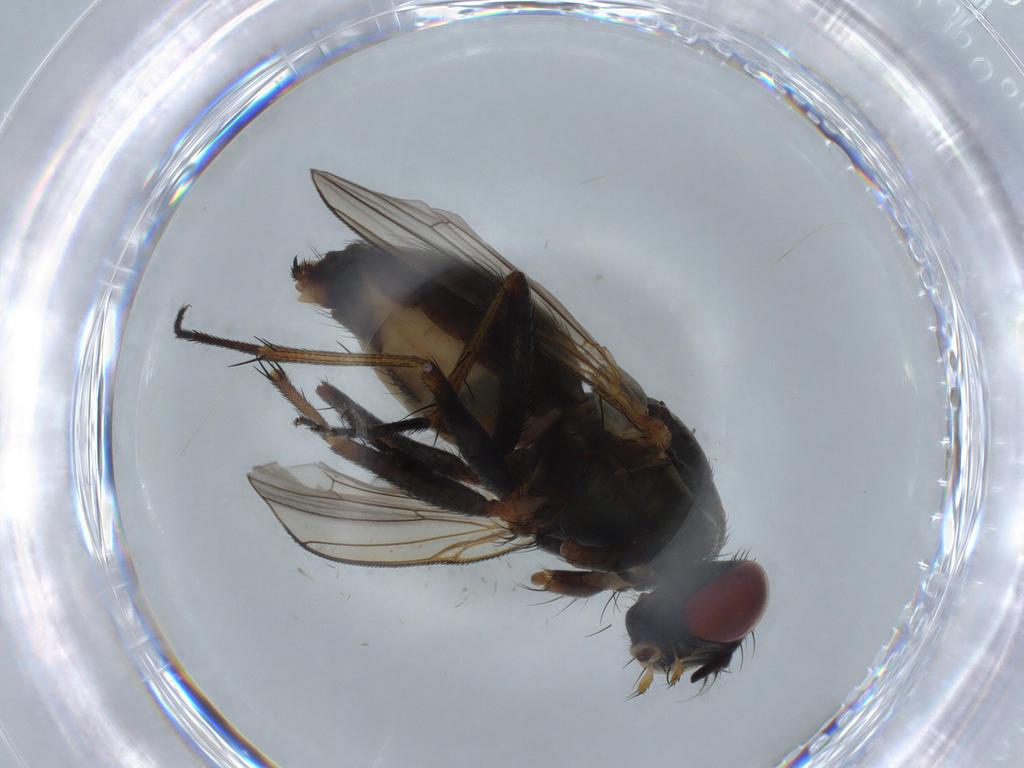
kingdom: Animalia
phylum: Arthropoda
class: Insecta
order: Diptera
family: Muscidae
